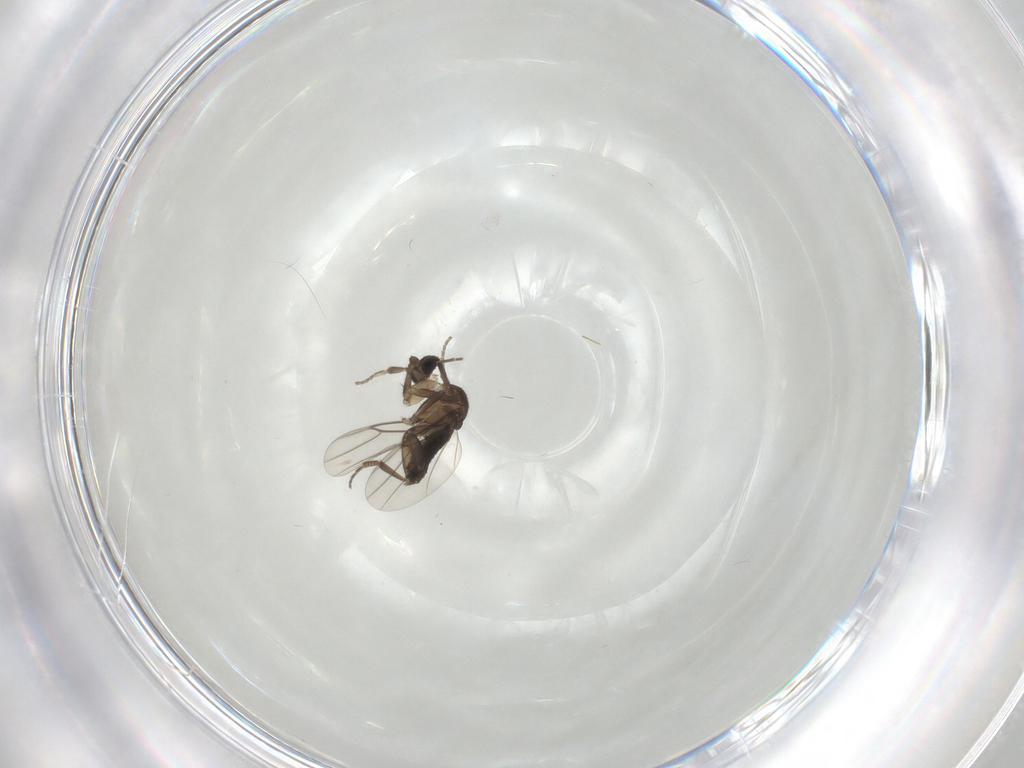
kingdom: Animalia
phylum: Arthropoda
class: Insecta
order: Diptera
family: Phoridae
